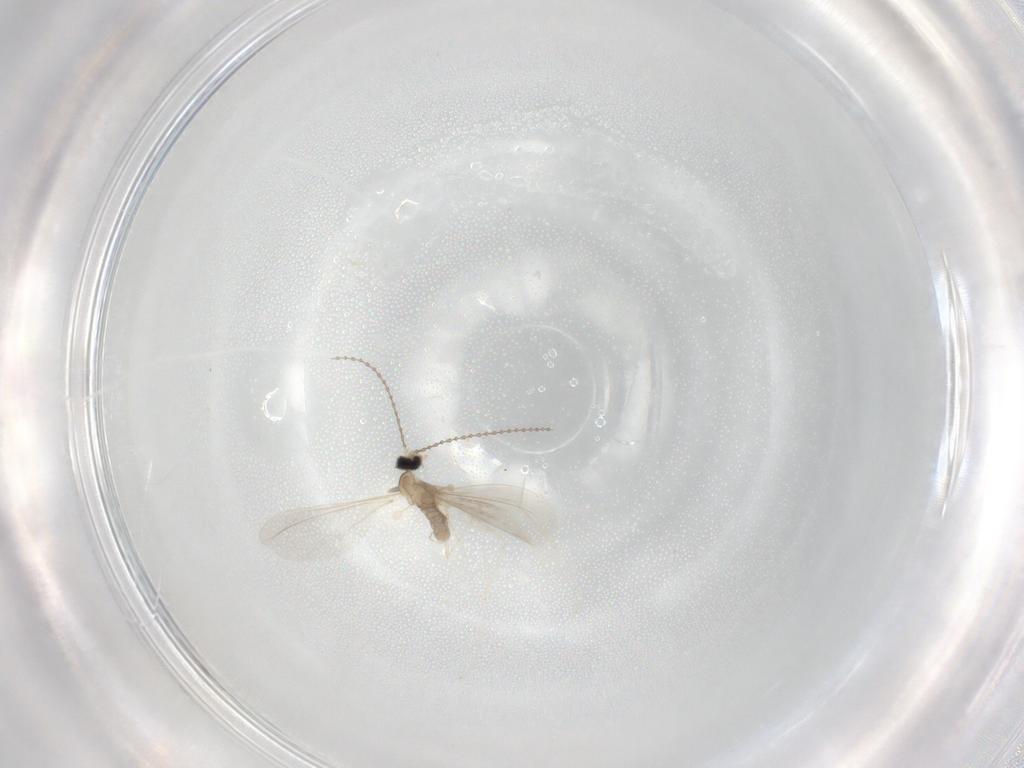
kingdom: Animalia
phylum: Arthropoda
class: Insecta
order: Diptera
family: Cecidomyiidae
